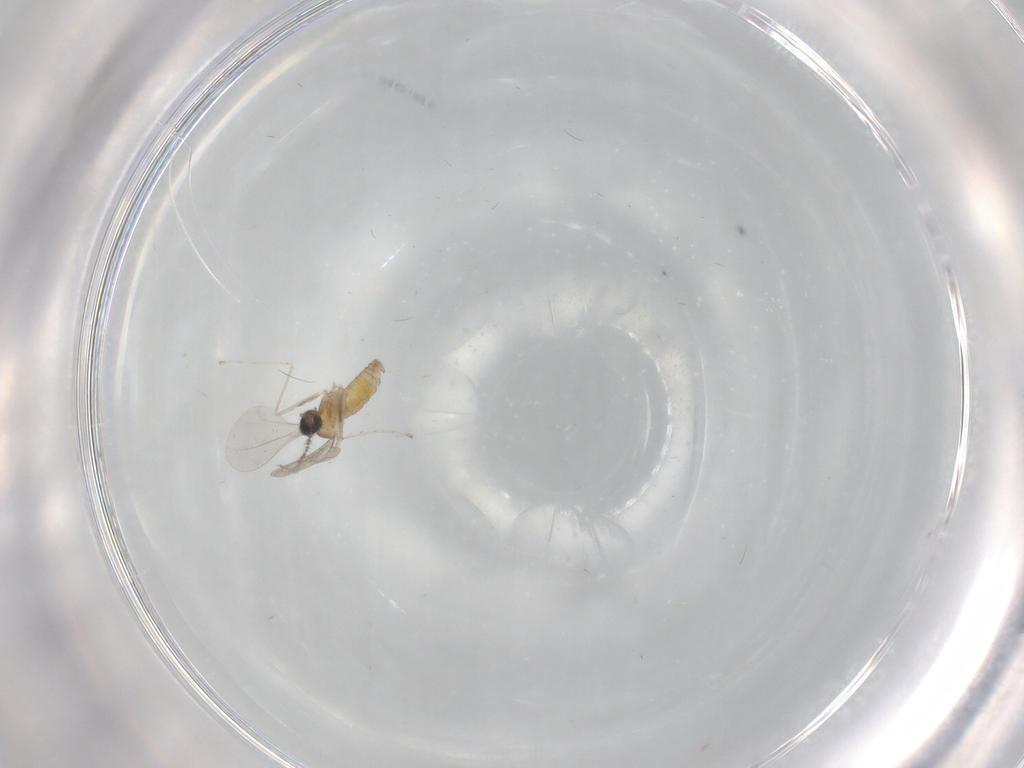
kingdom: Animalia
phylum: Arthropoda
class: Insecta
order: Diptera
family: Cecidomyiidae
